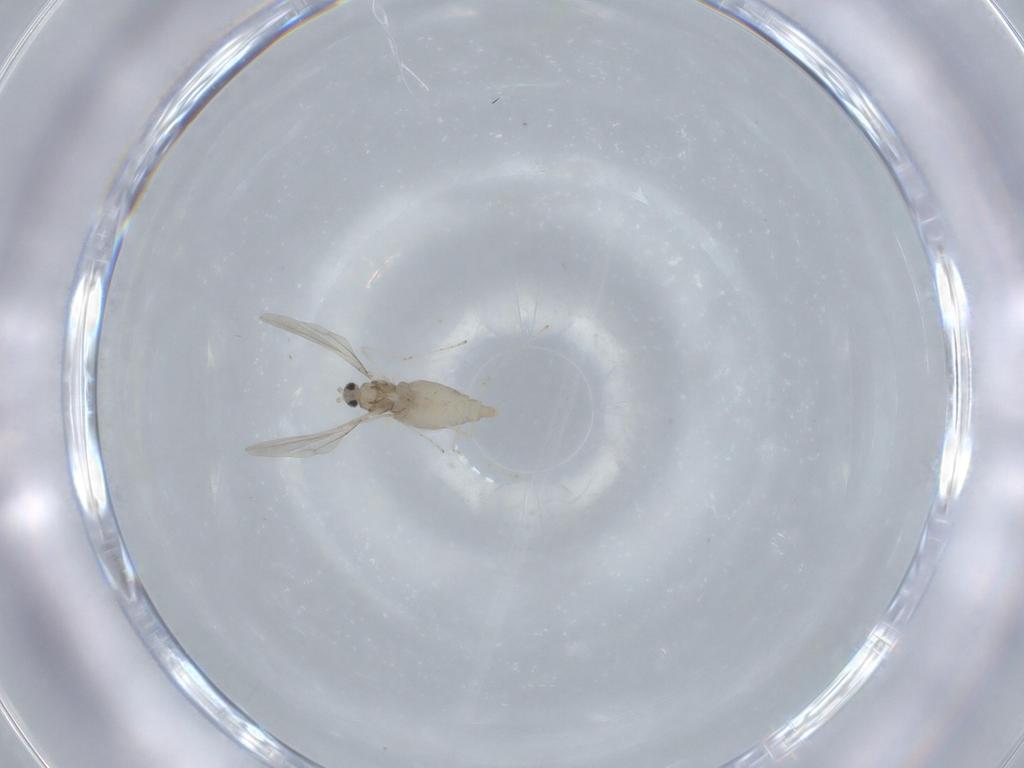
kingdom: Animalia
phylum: Arthropoda
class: Insecta
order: Diptera
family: Cecidomyiidae
